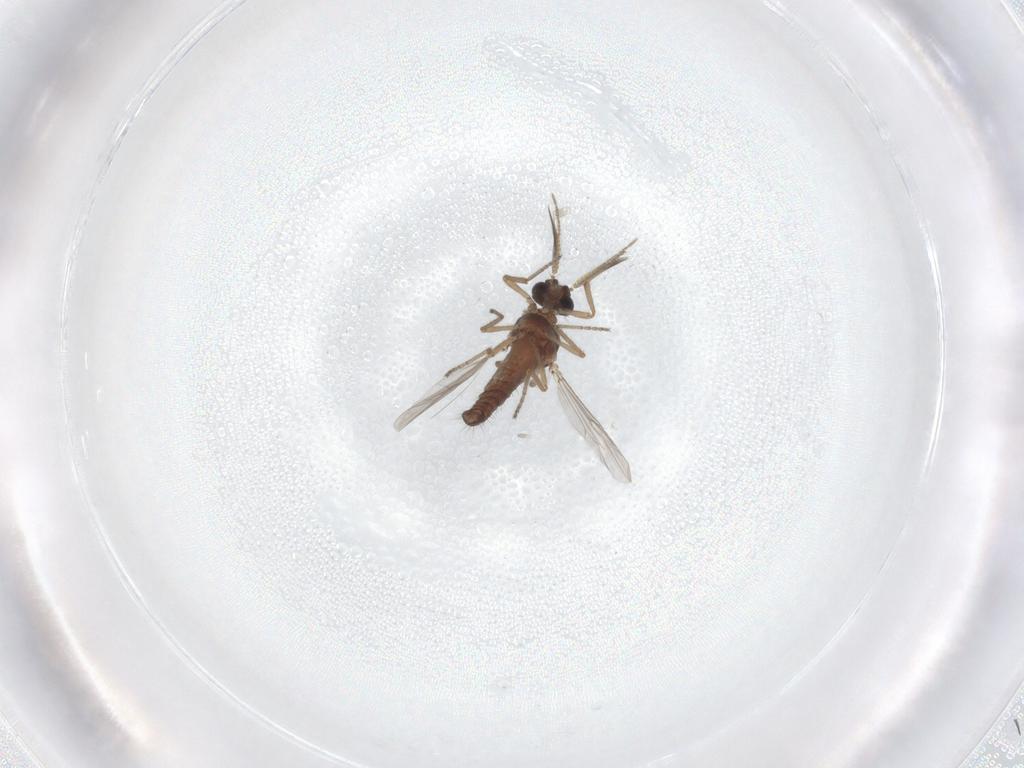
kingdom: Animalia
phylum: Arthropoda
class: Insecta
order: Diptera
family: Ceratopogonidae
